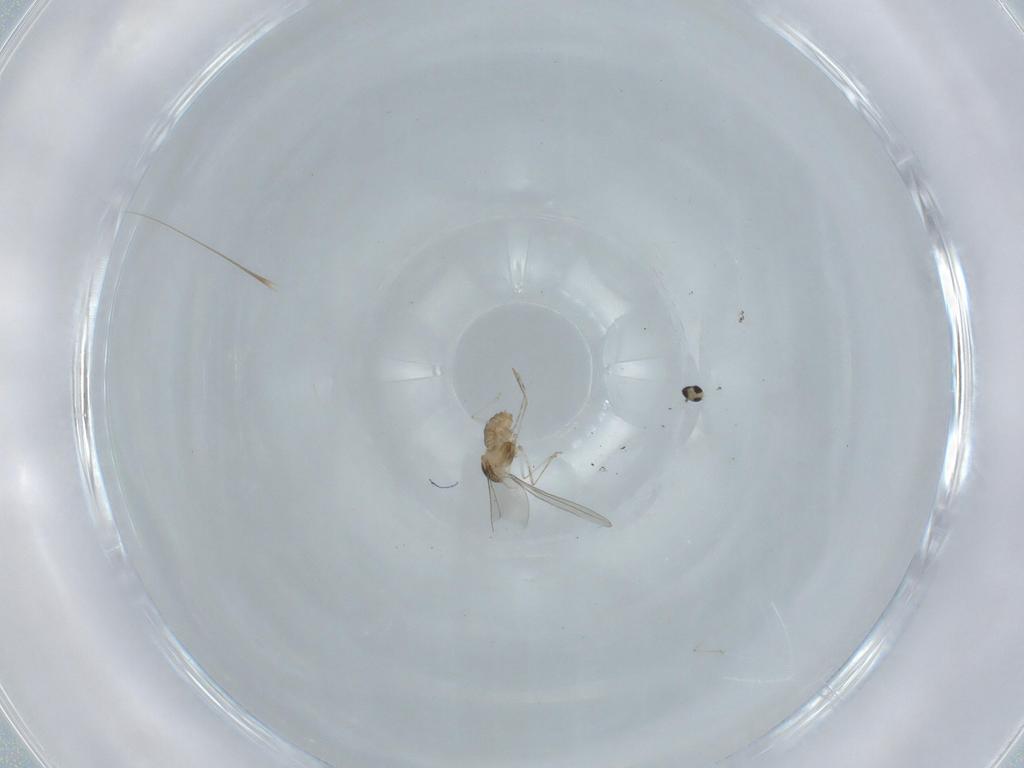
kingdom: Animalia
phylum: Arthropoda
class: Insecta
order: Diptera
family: Cecidomyiidae
